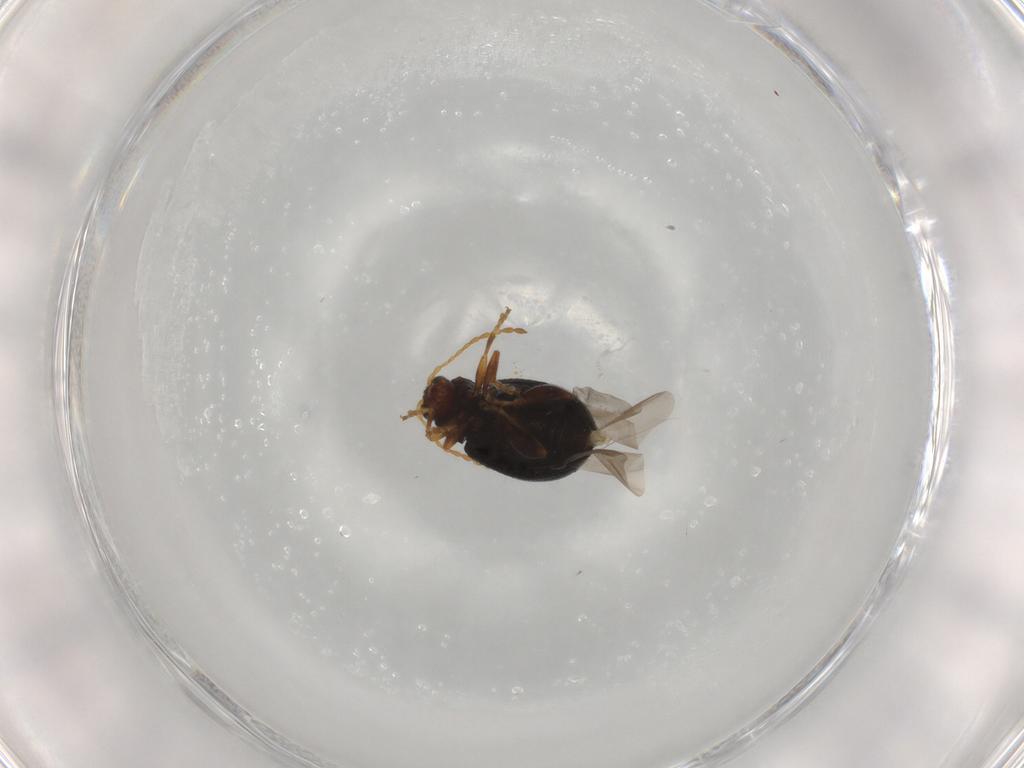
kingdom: Animalia
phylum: Arthropoda
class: Insecta
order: Coleoptera
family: Chrysomelidae
